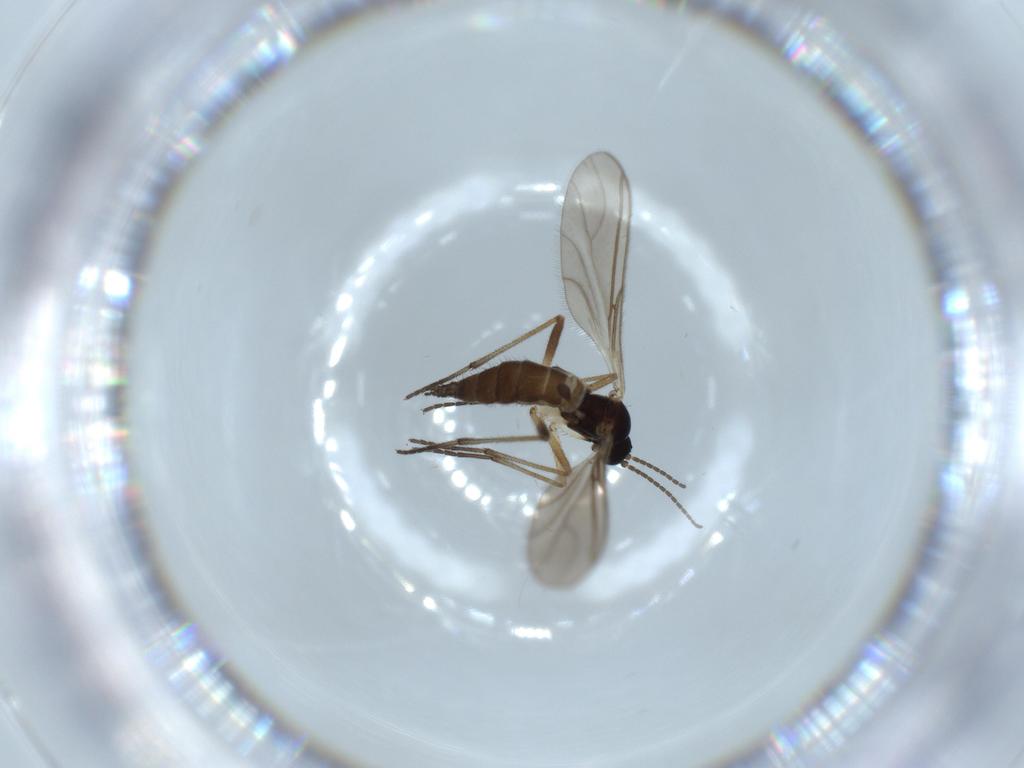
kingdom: Animalia
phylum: Arthropoda
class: Insecta
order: Diptera
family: Sciaridae
